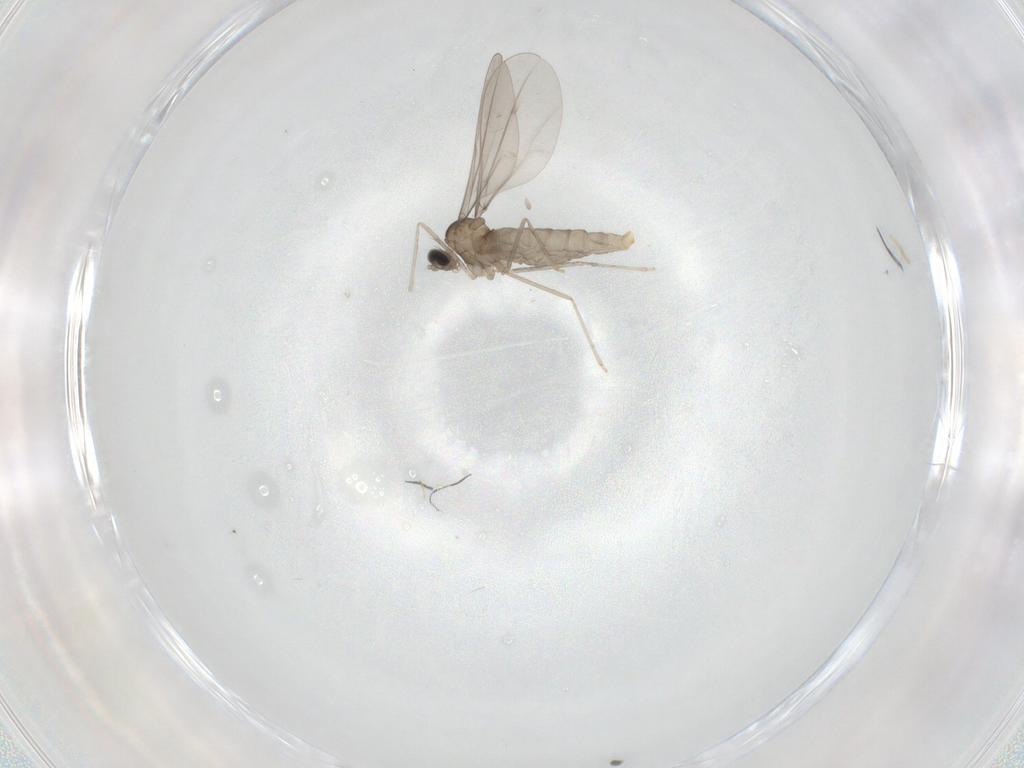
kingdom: Animalia
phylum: Arthropoda
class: Insecta
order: Diptera
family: Cecidomyiidae
